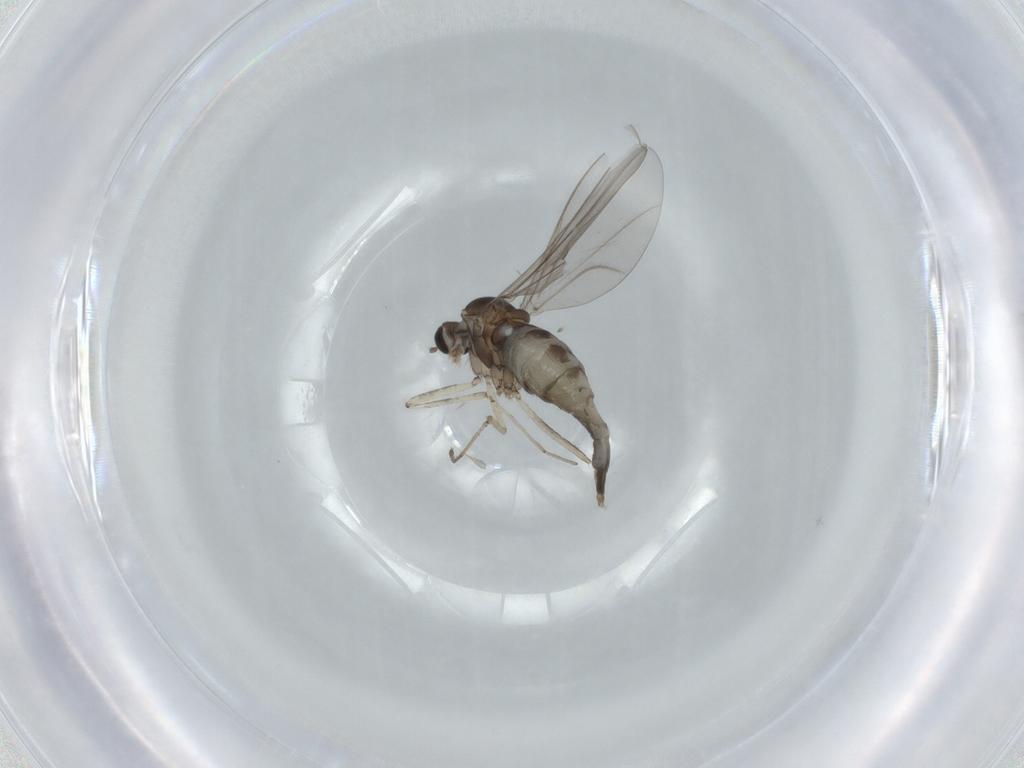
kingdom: Animalia
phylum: Arthropoda
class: Insecta
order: Diptera
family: Cecidomyiidae
